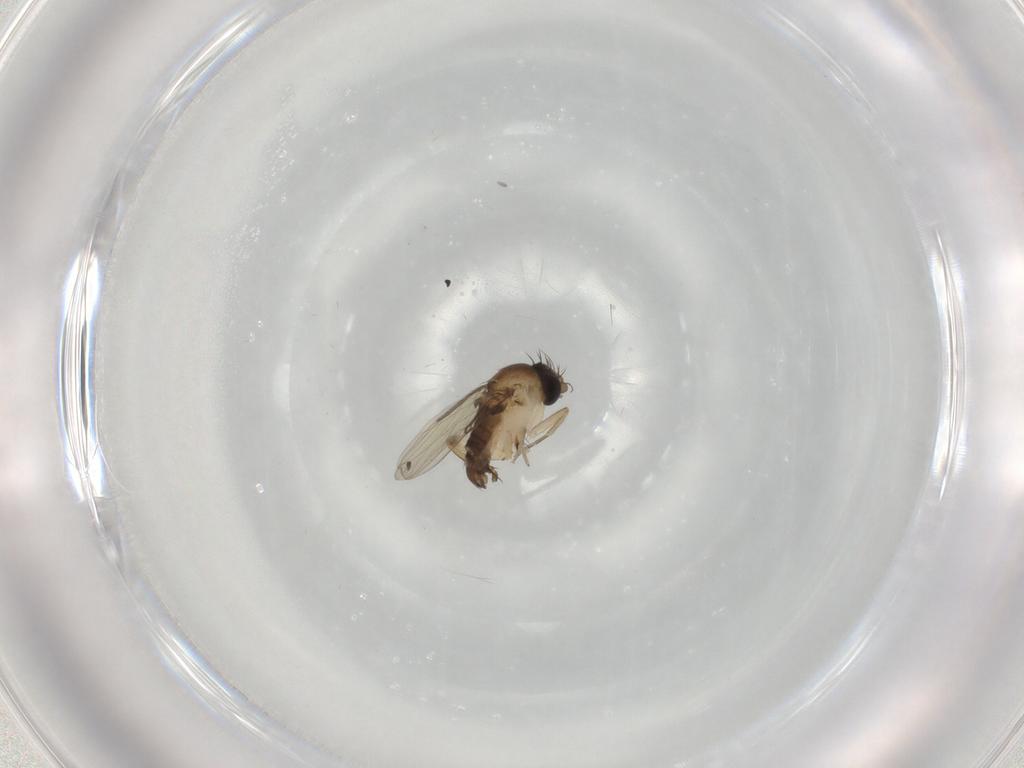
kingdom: Animalia
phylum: Arthropoda
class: Insecta
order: Diptera
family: Phoridae
